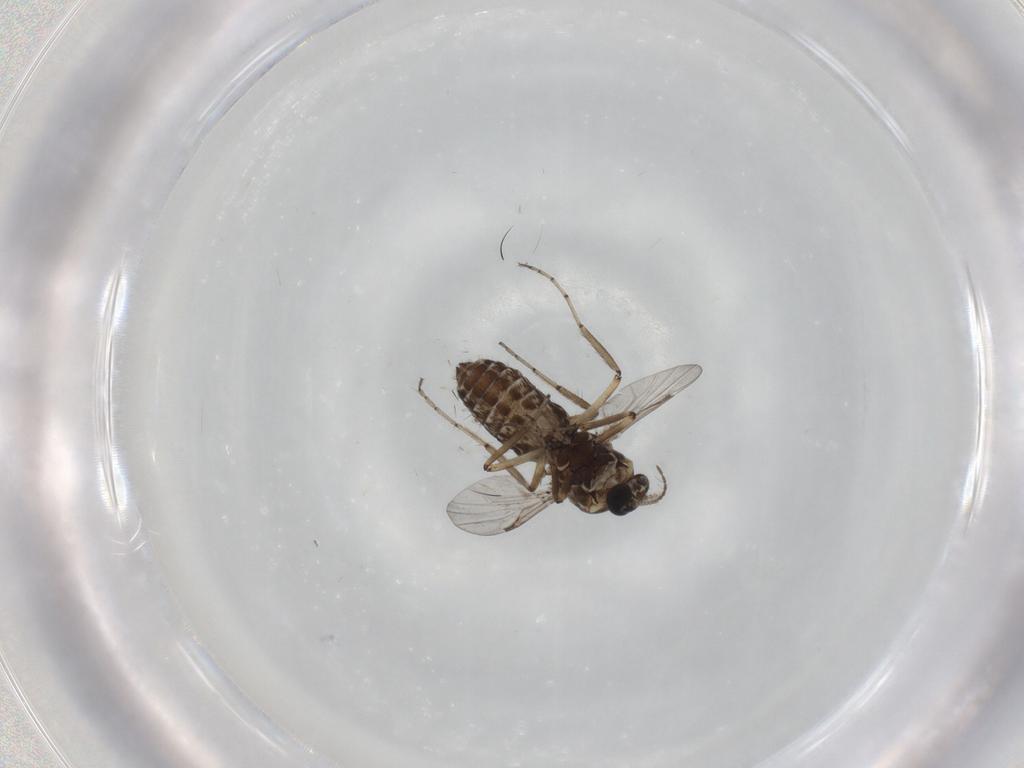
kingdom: Animalia
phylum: Arthropoda
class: Insecta
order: Diptera
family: Ceratopogonidae
